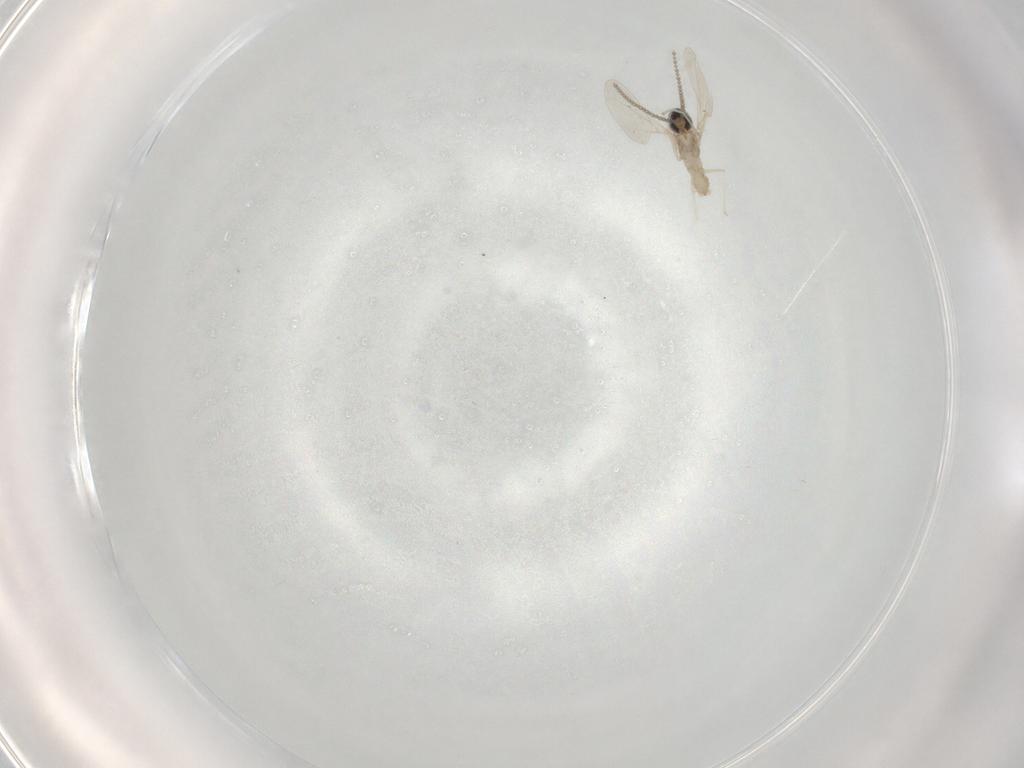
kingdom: Animalia
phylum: Arthropoda
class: Insecta
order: Diptera
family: Cecidomyiidae
